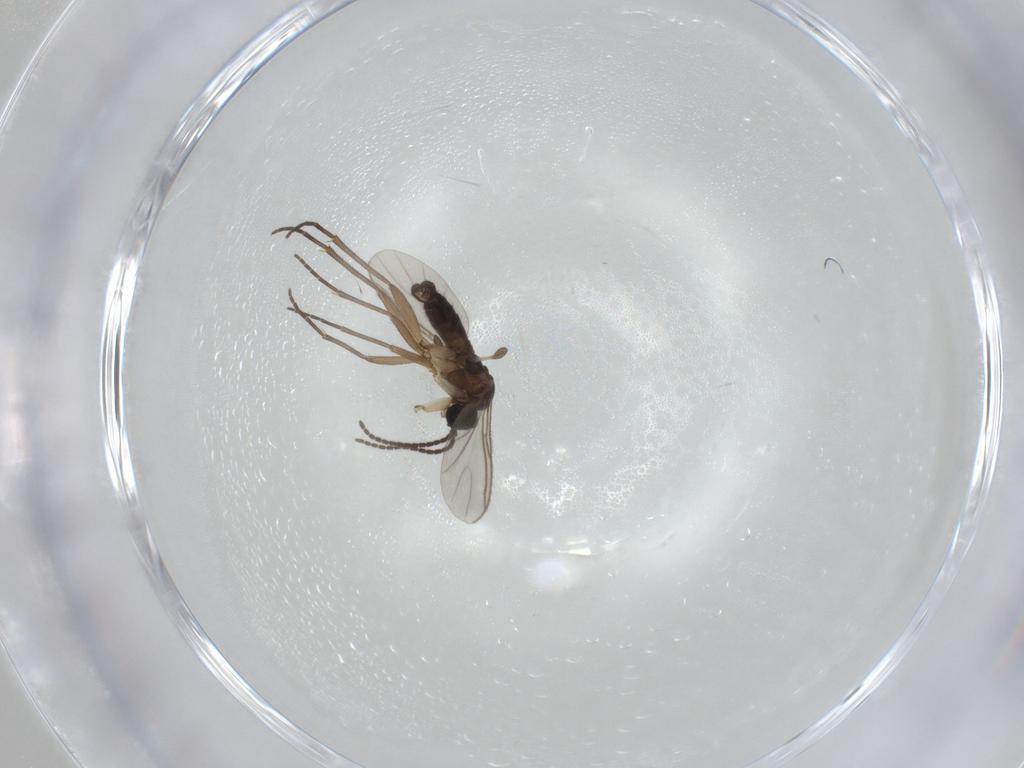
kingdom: Animalia
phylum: Arthropoda
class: Insecta
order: Diptera
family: Sciaridae
